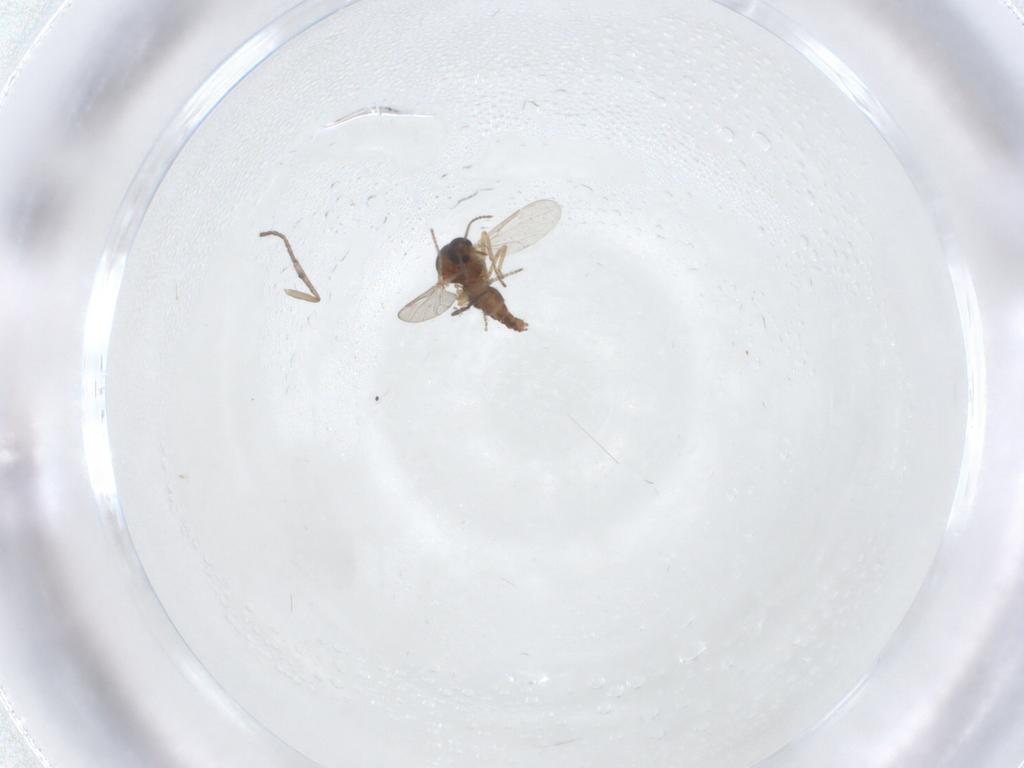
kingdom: Animalia
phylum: Arthropoda
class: Insecta
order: Diptera
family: Ceratopogonidae
